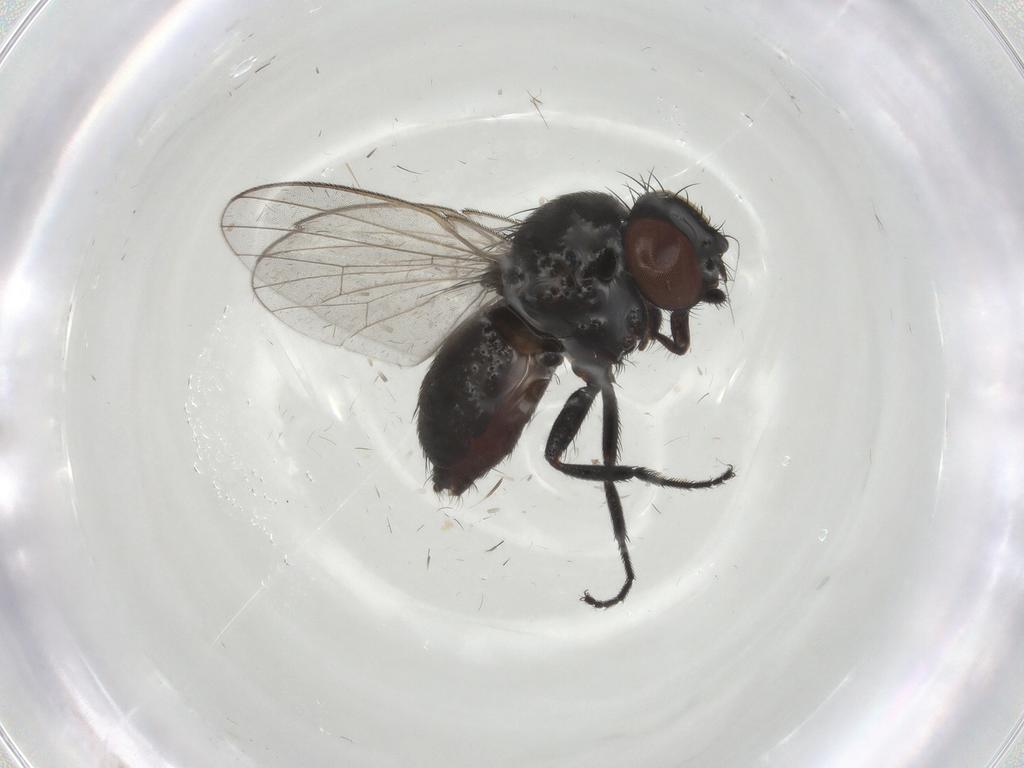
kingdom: Animalia
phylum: Arthropoda
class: Insecta
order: Diptera
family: Milichiidae
